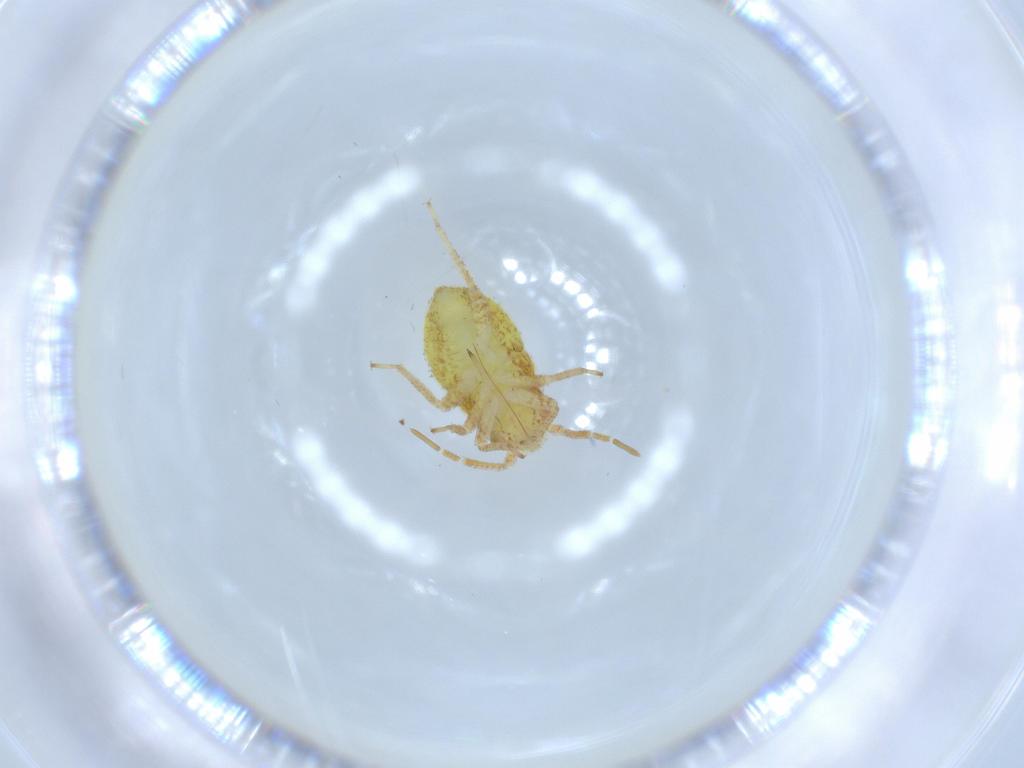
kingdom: Animalia
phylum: Arthropoda
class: Insecta
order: Hemiptera
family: Miridae
